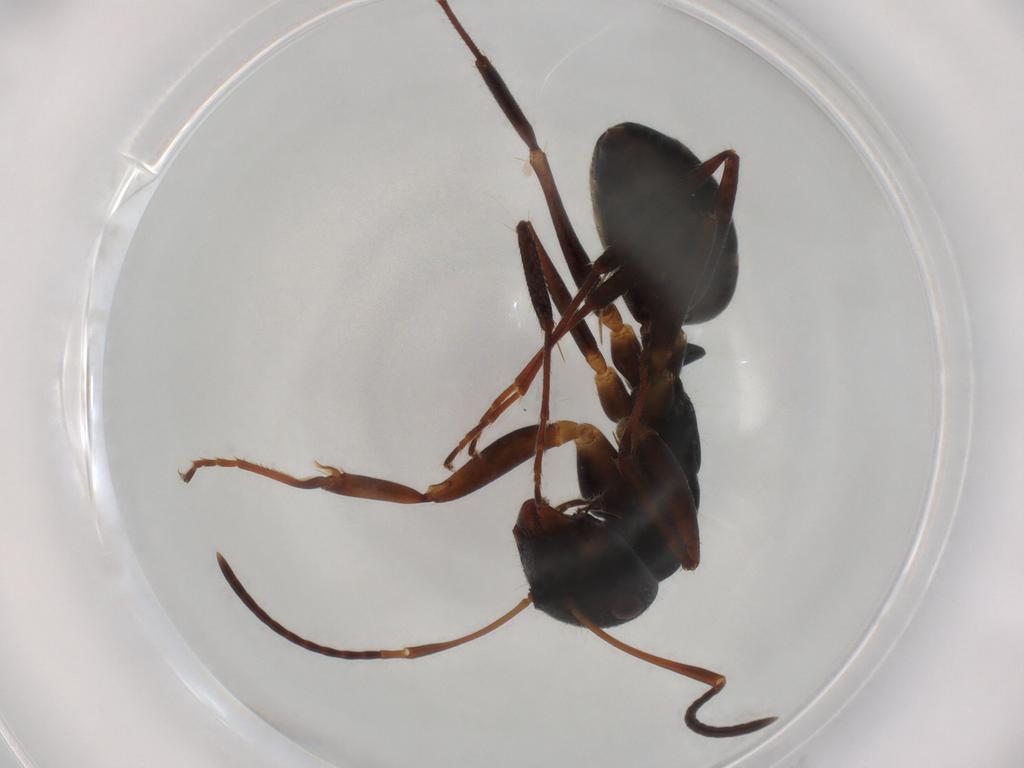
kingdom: Animalia
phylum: Arthropoda
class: Insecta
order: Hymenoptera
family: Formicidae
